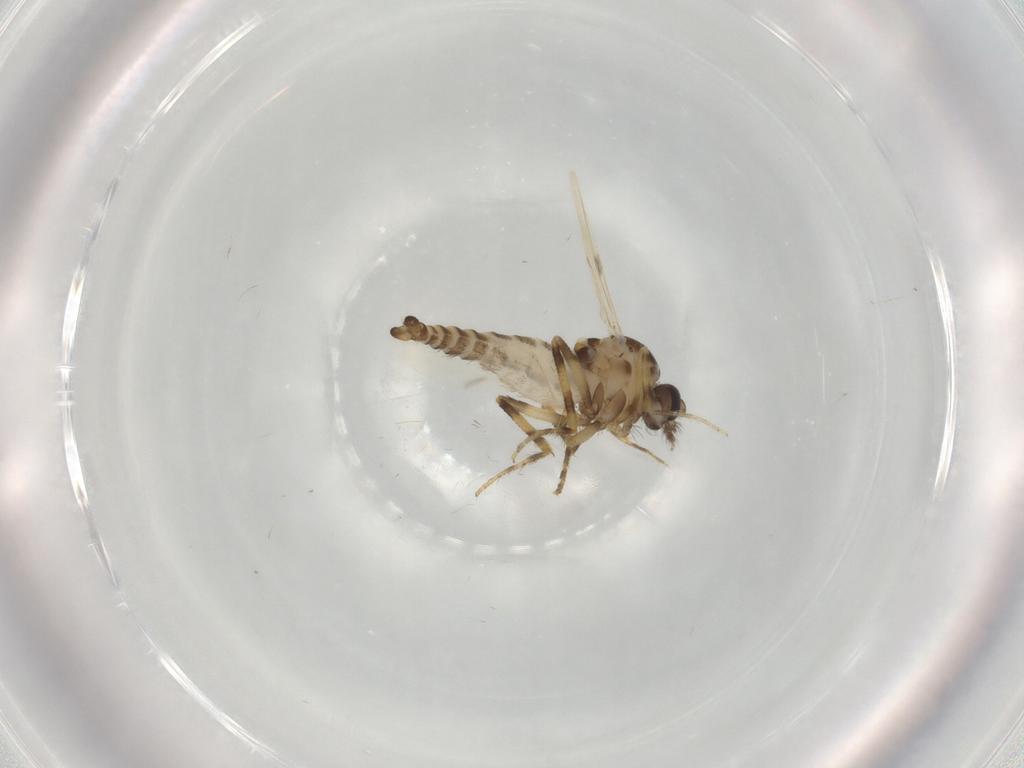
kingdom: Animalia
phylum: Arthropoda
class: Insecta
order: Diptera
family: Ceratopogonidae
